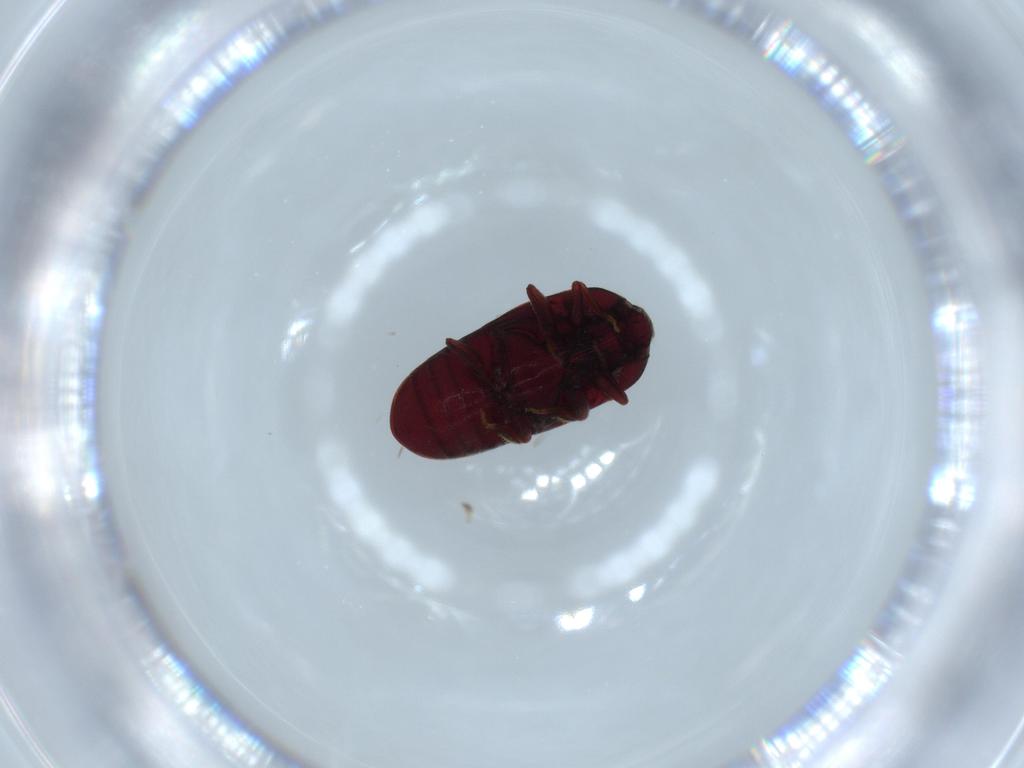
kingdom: Animalia
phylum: Arthropoda
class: Insecta
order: Coleoptera
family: Throscidae
